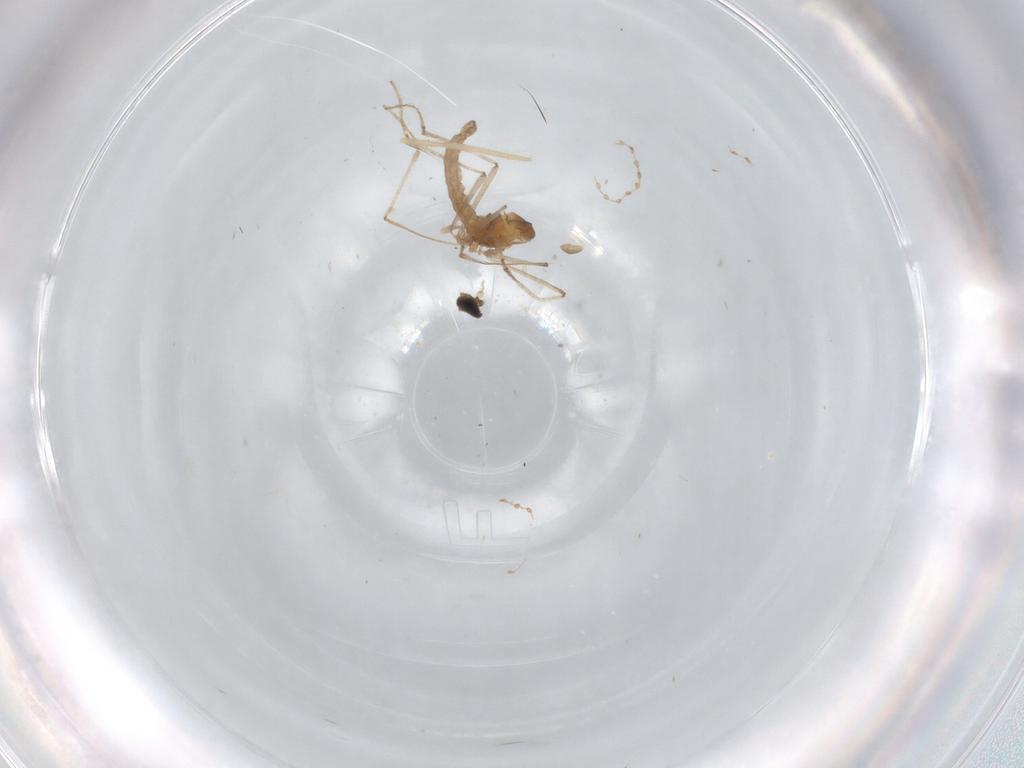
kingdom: Animalia
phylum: Arthropoda
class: Insecta
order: Diptera
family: Cecidomyiidae
